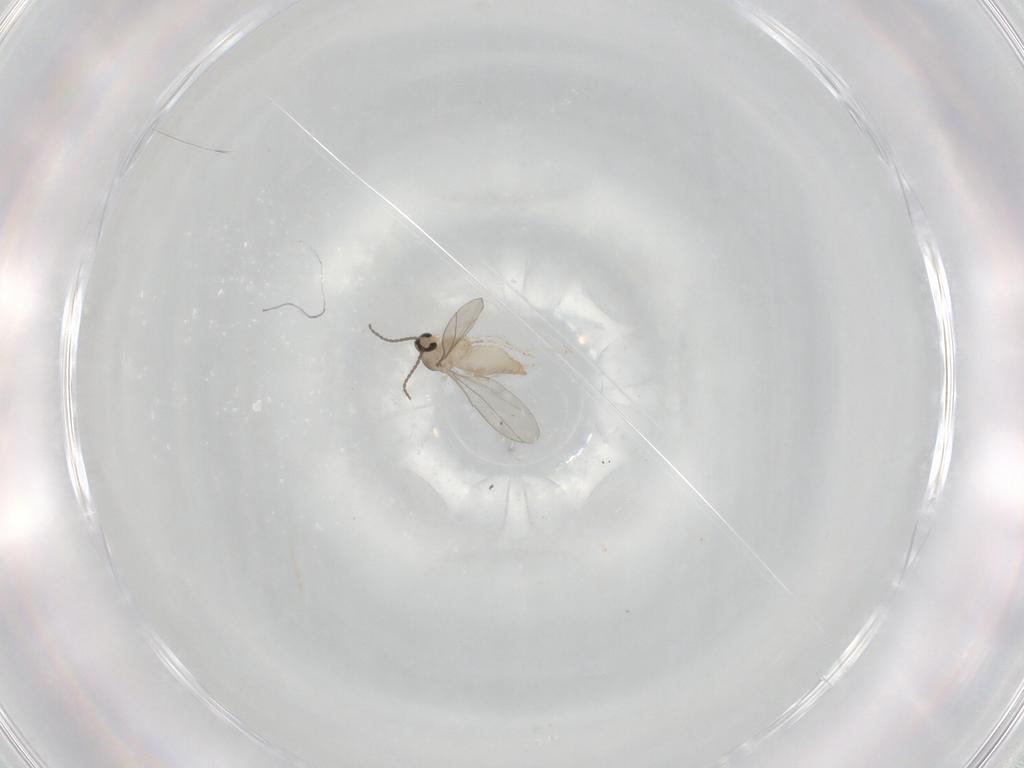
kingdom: Animalia
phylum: Arthropoda
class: Insecta
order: Diptera
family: Cecidomyiidae
